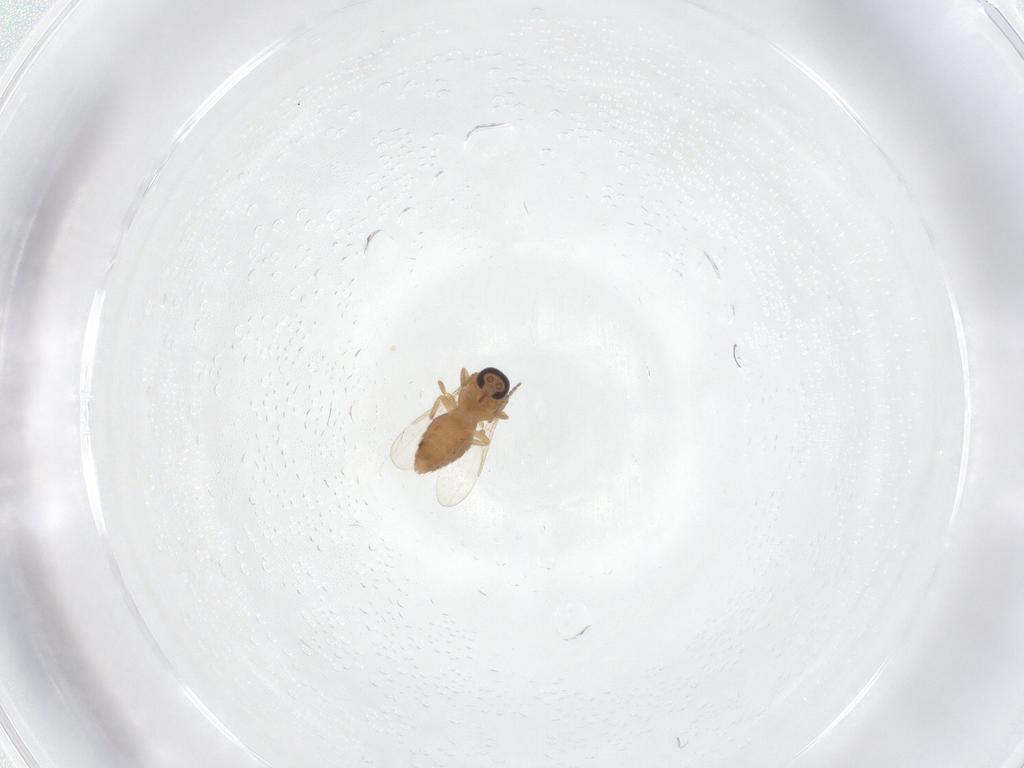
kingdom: Animalia
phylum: Arthropoda
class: Insecta
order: Diptera
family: Ceratopogonidae
